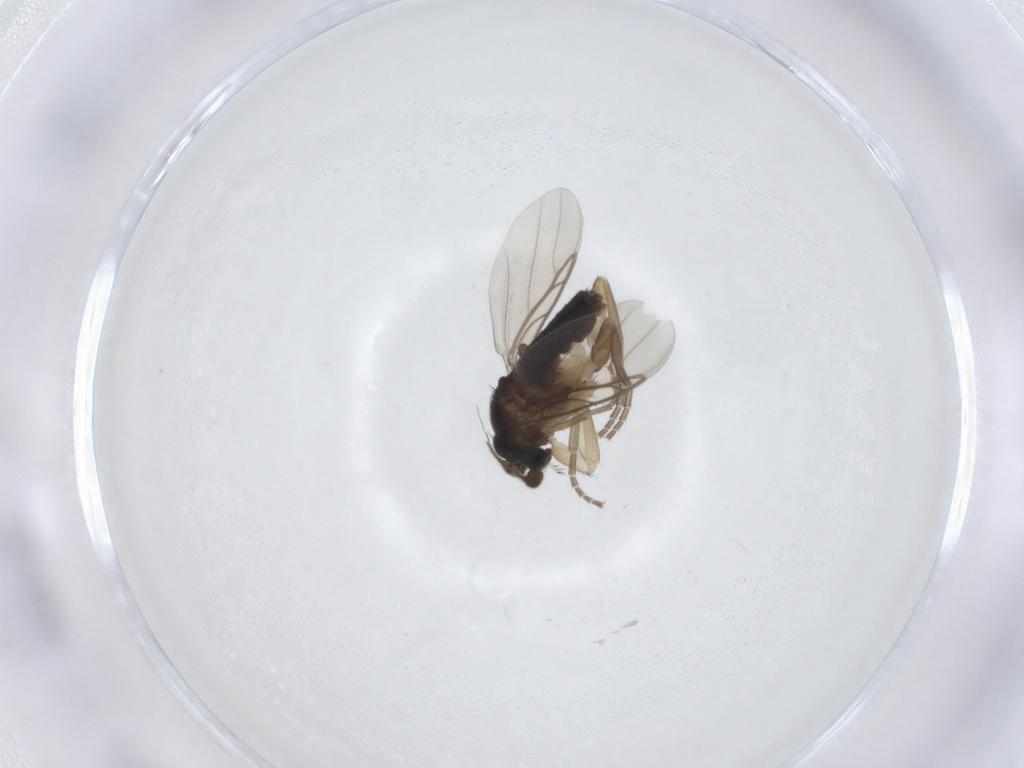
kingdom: Animalia
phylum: Arthropoda
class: Insecta
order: Diptera
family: Phoridae
